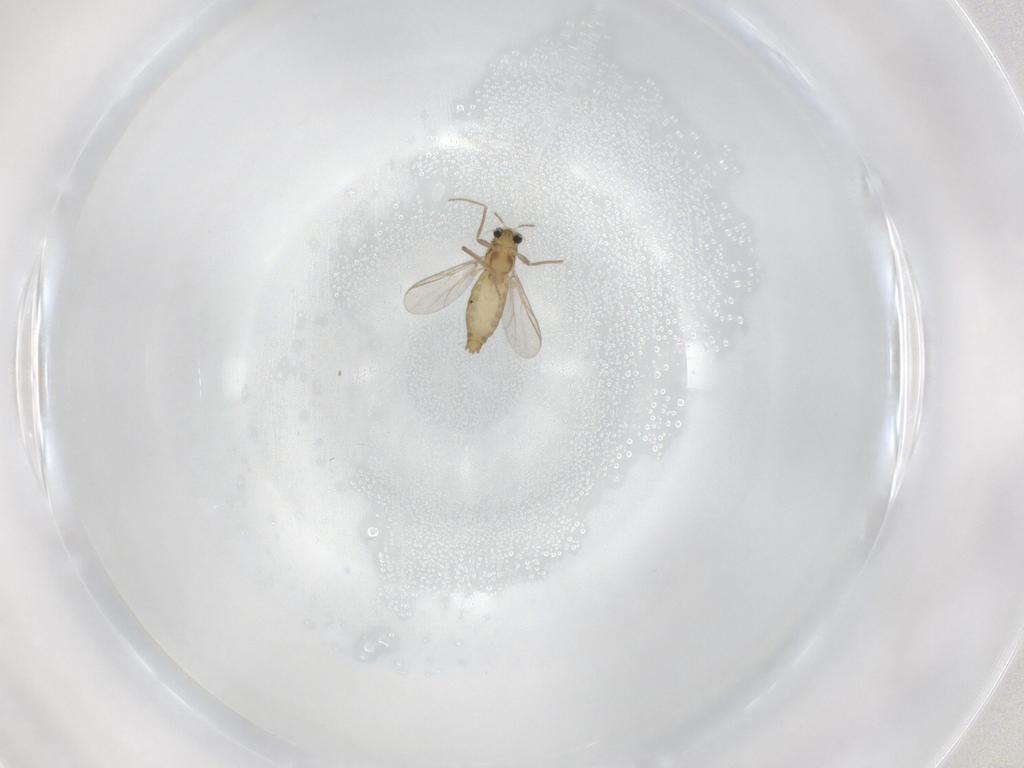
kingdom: Animalia
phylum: Arthropoda
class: Insecta
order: Diptera
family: Chironomidae
